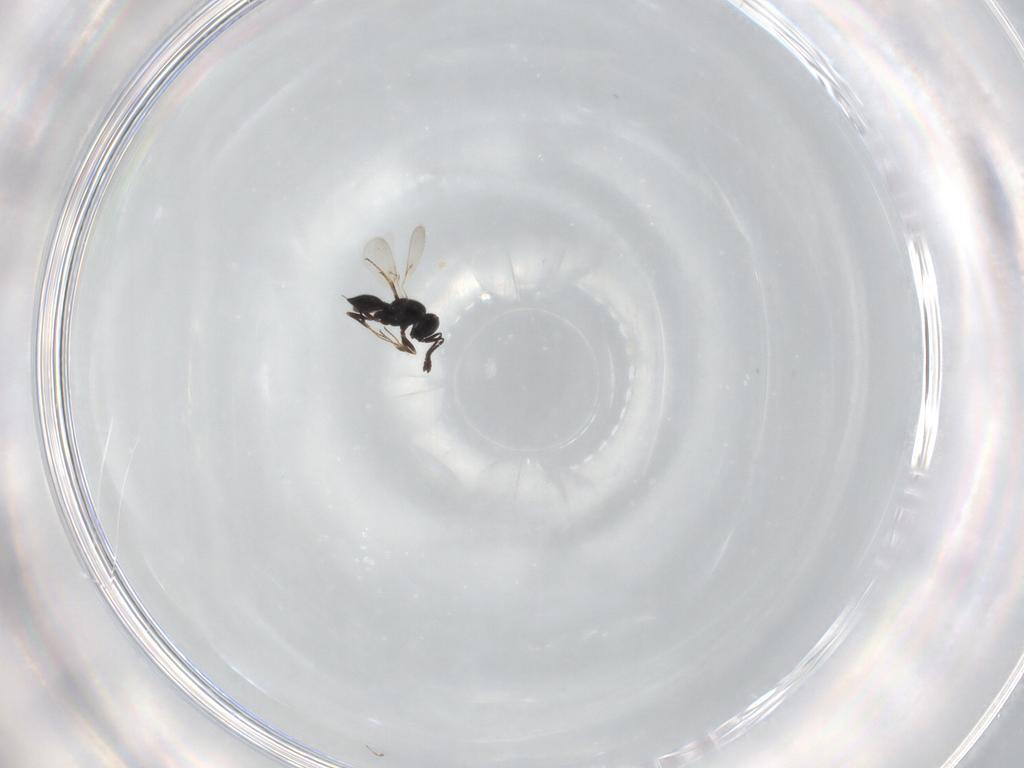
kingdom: Animalia
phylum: Arthropoda
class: Insecta
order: Hymenoptera
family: Scelionidae
